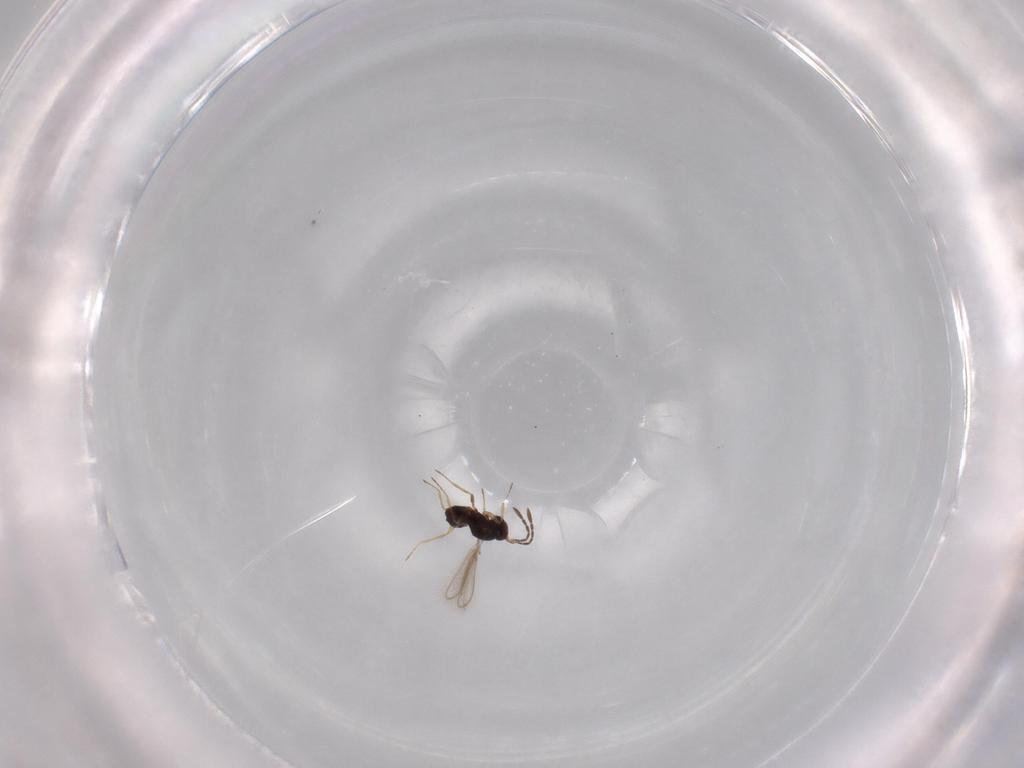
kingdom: Animalia
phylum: Arthropoda
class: Insecta
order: Hymenoptera
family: Mymaridae
